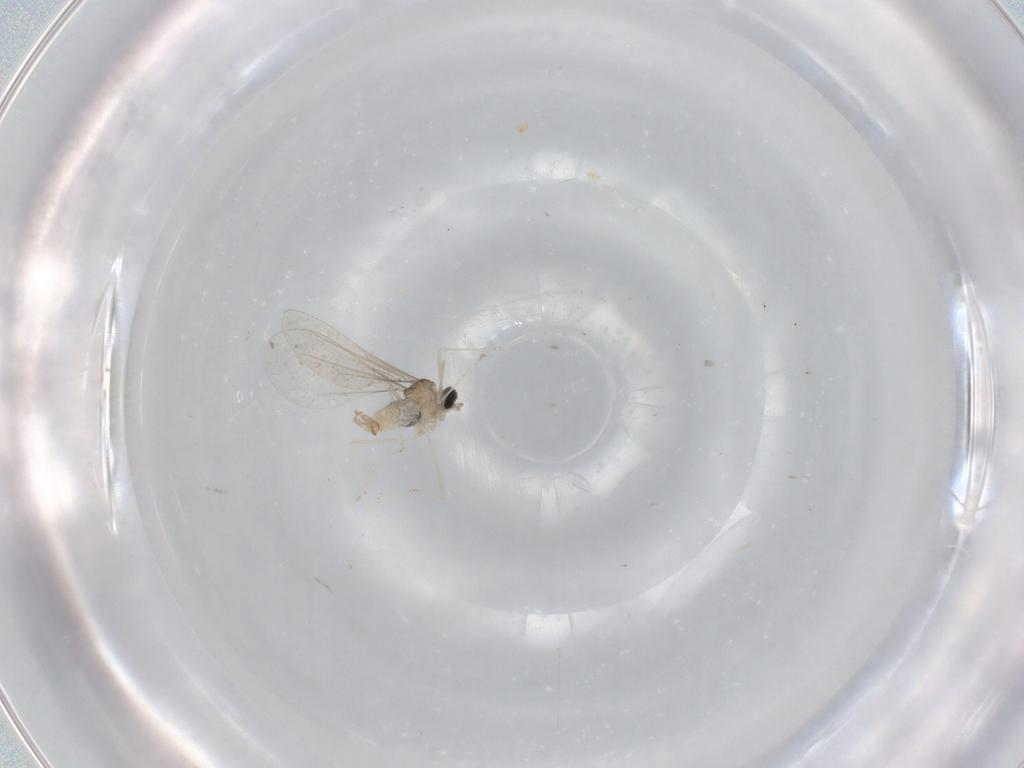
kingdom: Animalia
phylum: Arthropoda
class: Insecta
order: Diptera
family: Cecidomyiidae
